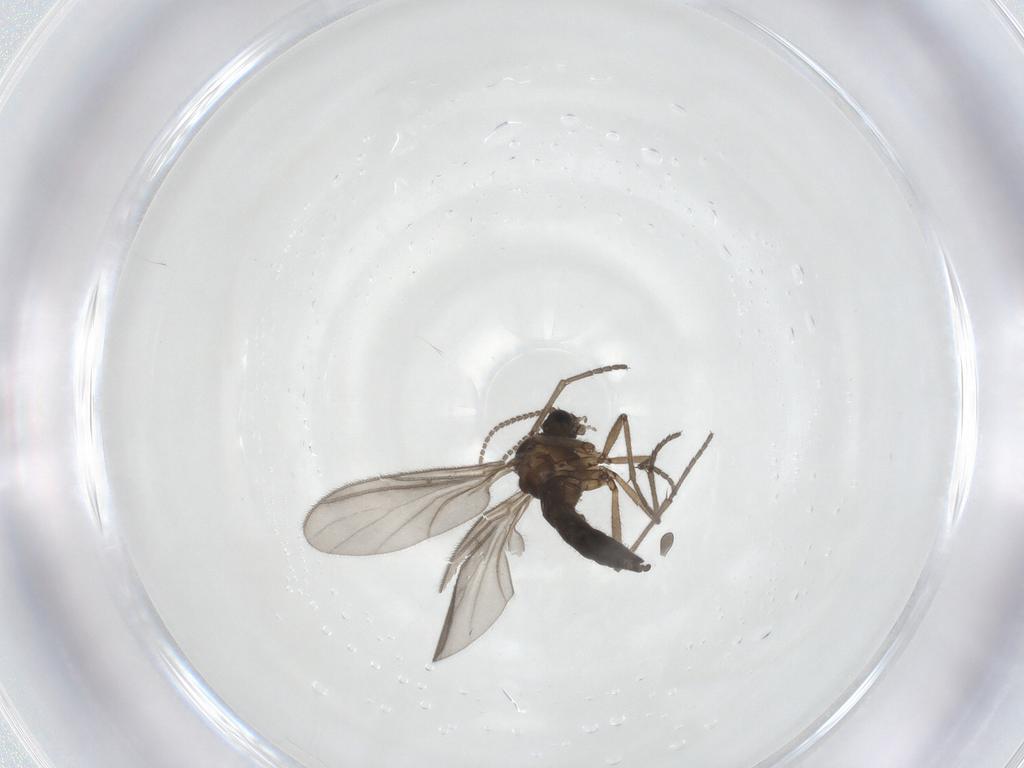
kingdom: Animalia
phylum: Arthropoda
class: Insecta
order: Diptera
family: Sciaridae
